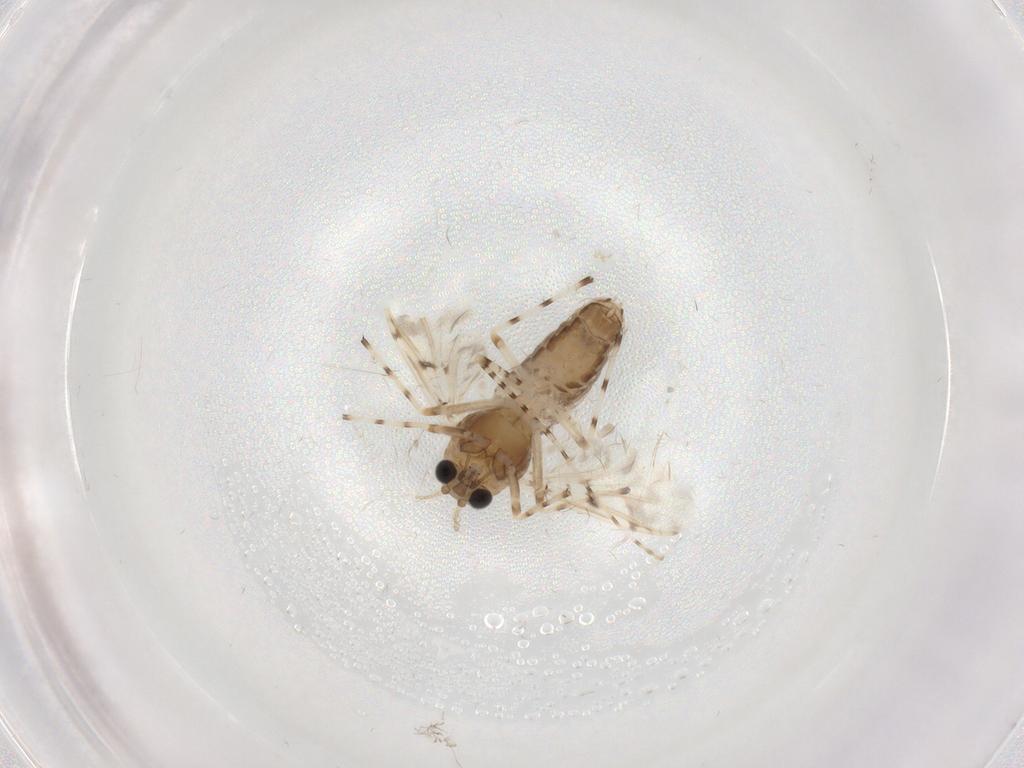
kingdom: Animalia
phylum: Arthropoda
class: Insecta
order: Diptera
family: Chironomidae
